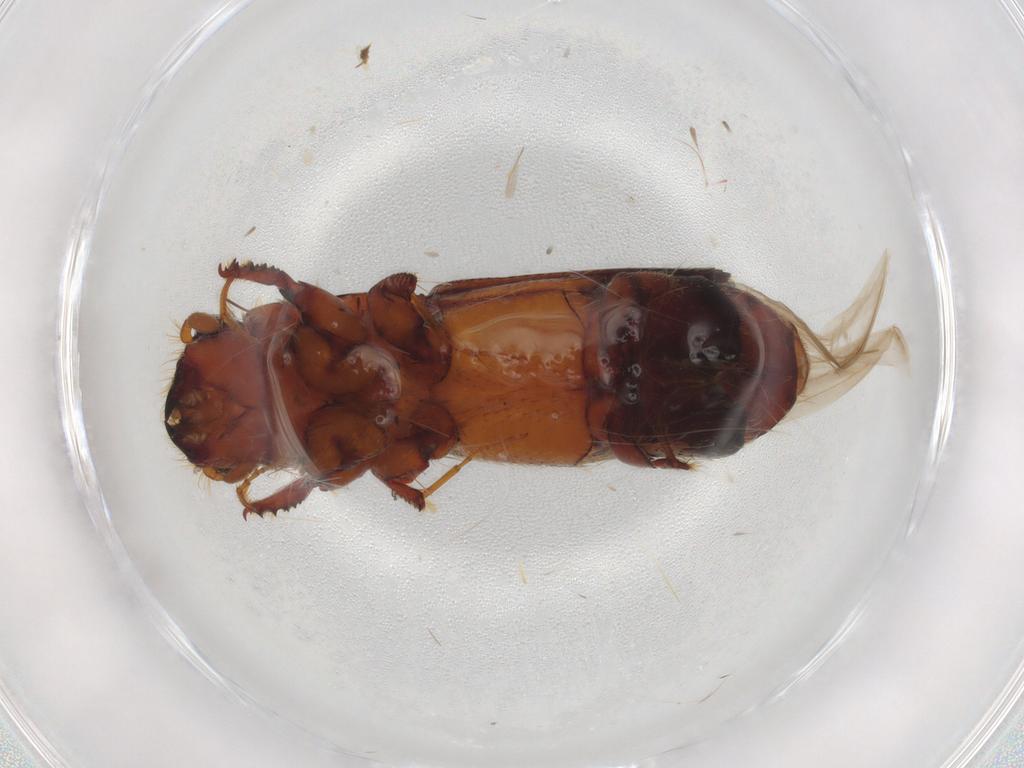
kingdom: Animalia
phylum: Arthropoda
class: Insecta
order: Coleoptera
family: Curculionidae
